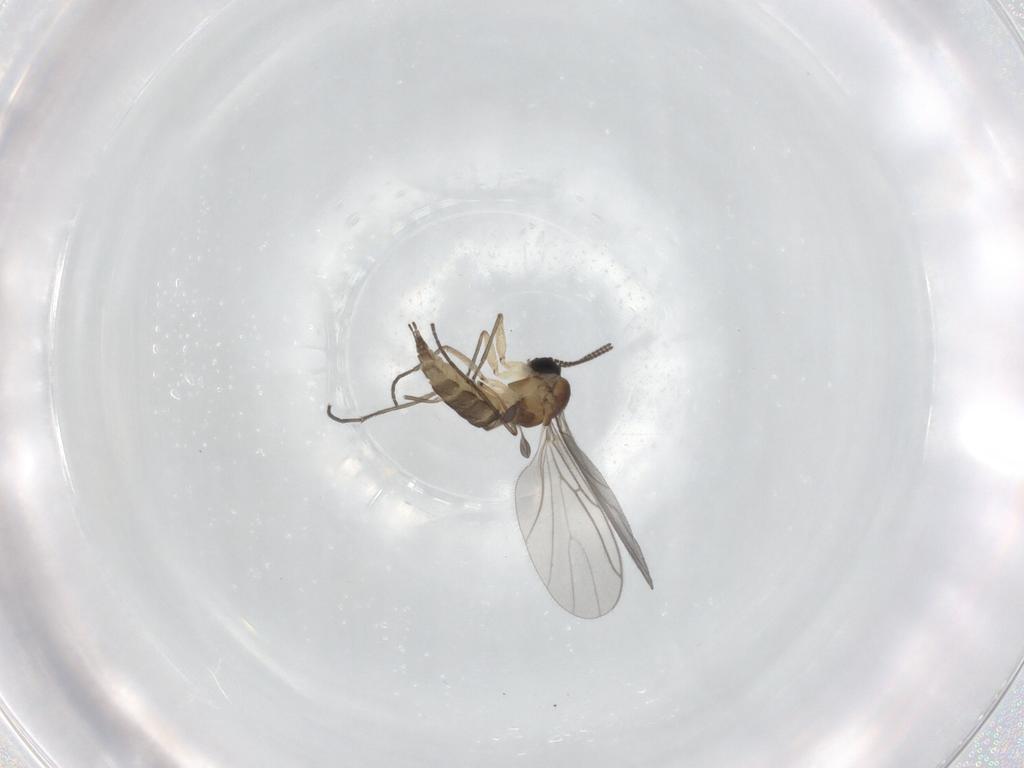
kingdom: Animalia
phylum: Arthropoda
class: Insecta
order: Diptera
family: Sciaridae
